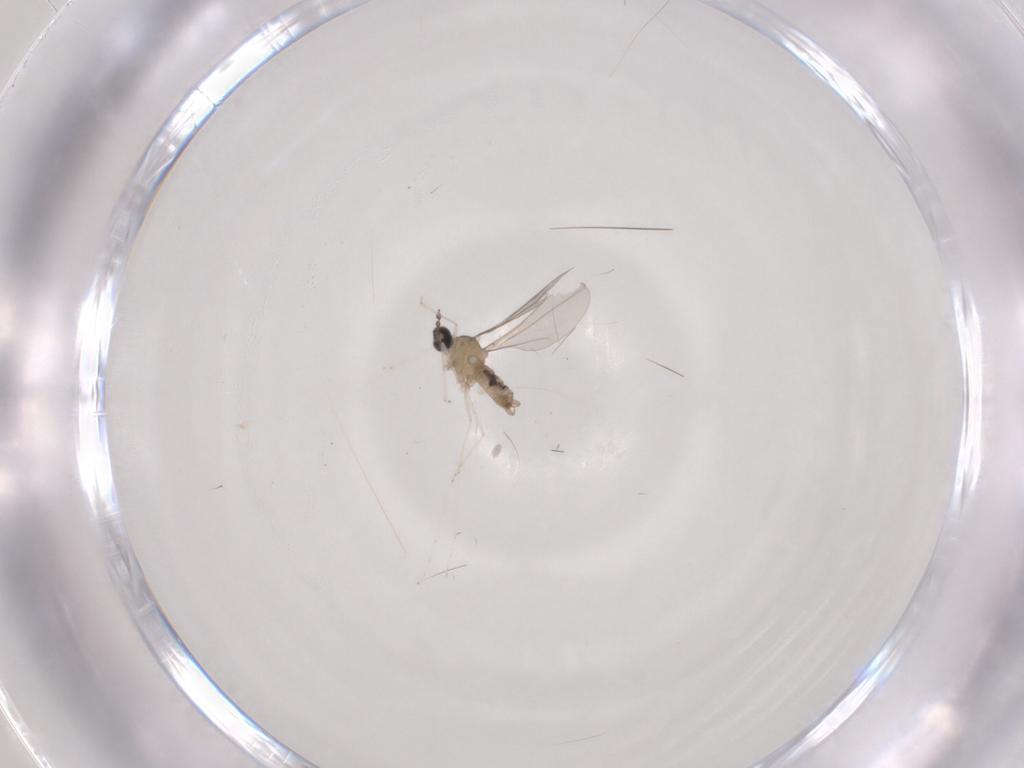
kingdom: Animalia
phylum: Arthropoda
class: Insecta
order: Diptera
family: Cecidomyiidae
